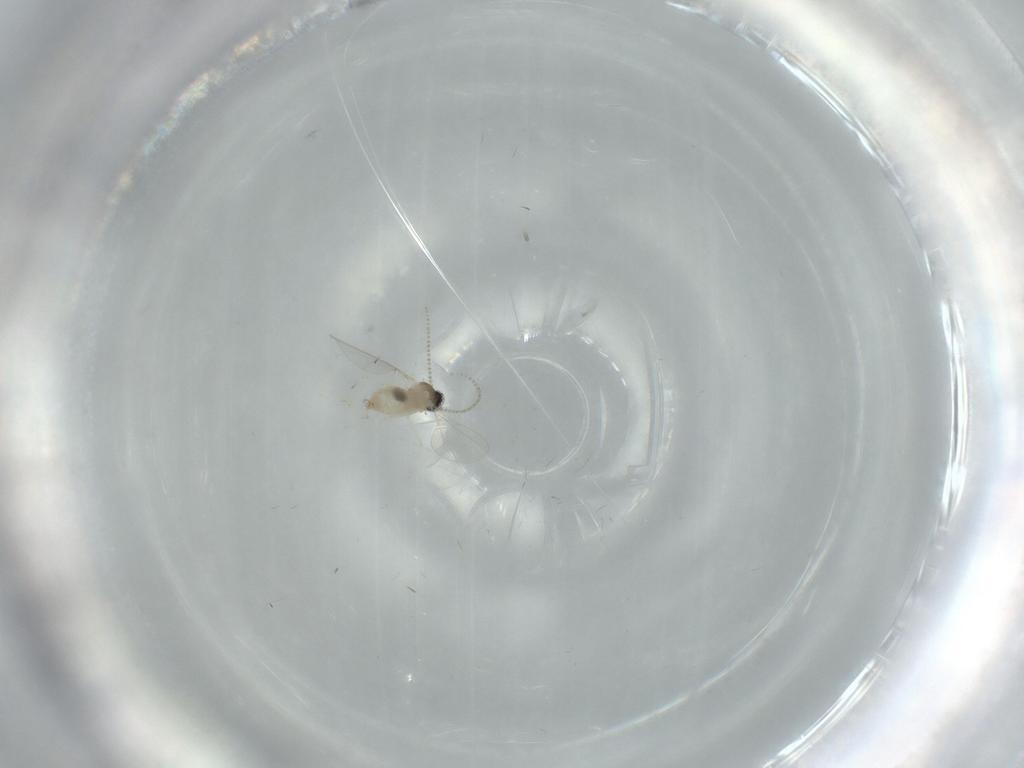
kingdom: Animalia
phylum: Arthropoda
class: Insecta
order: Diptera
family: Cecidomyiidae
